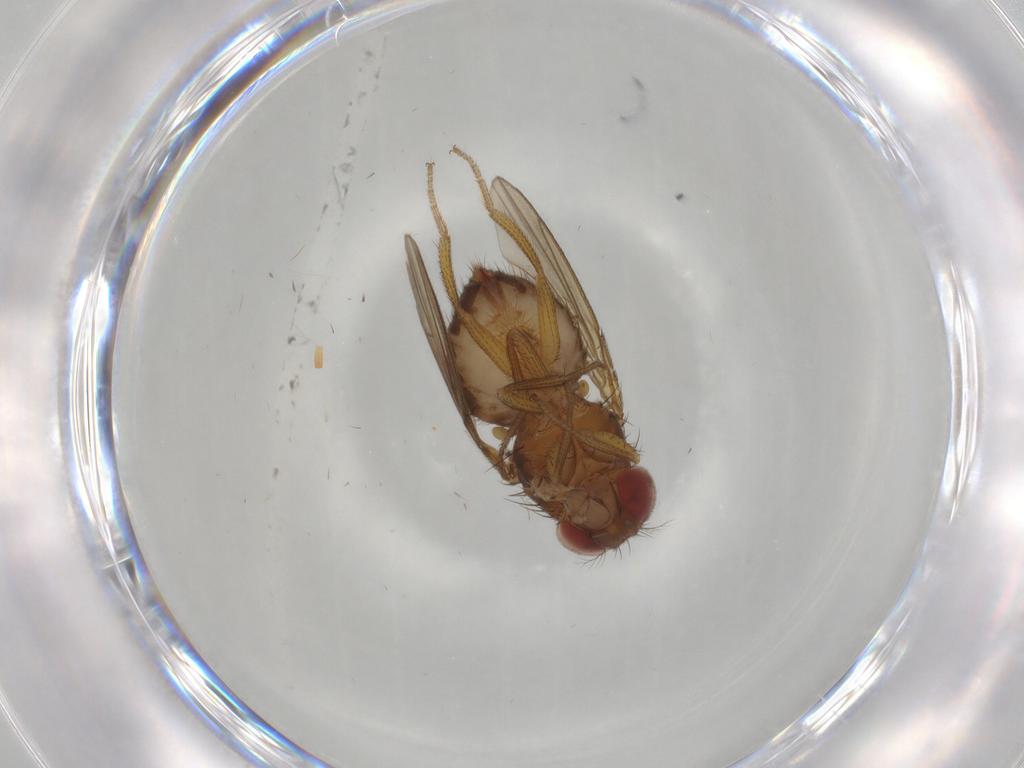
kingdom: Animalia
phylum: Arthropoda
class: Insecta
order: Diptera
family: Drosophilidae
